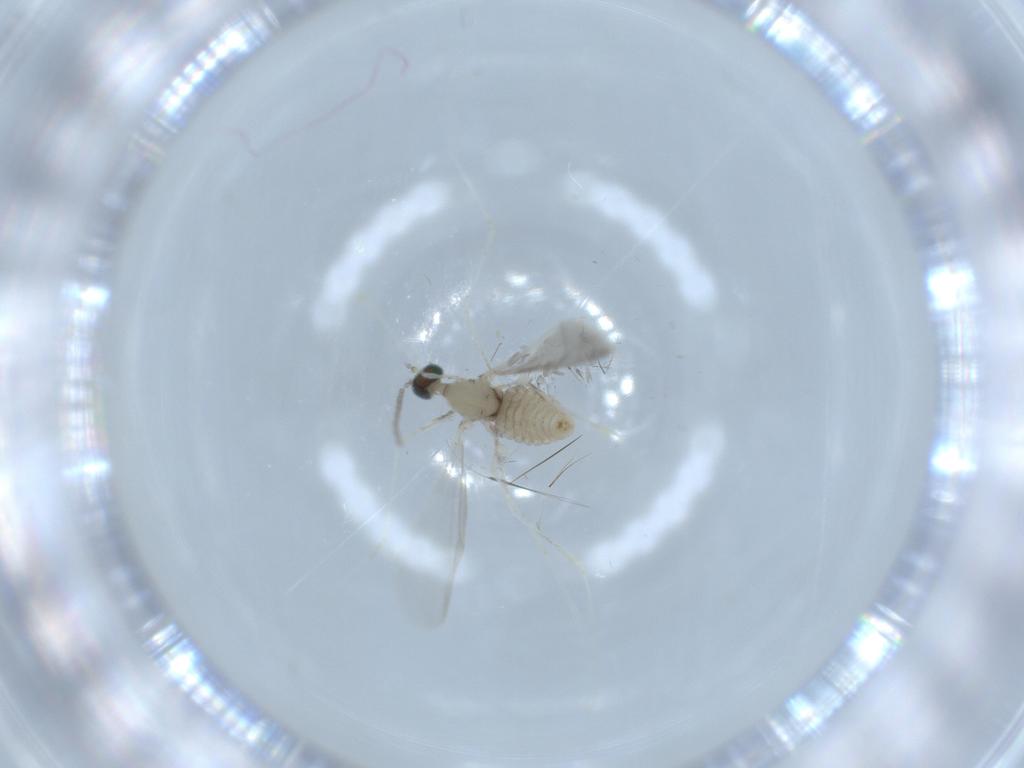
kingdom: Animalia
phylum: Arthropoda
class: Insecta
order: Diptera
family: Cecidomyiidae
